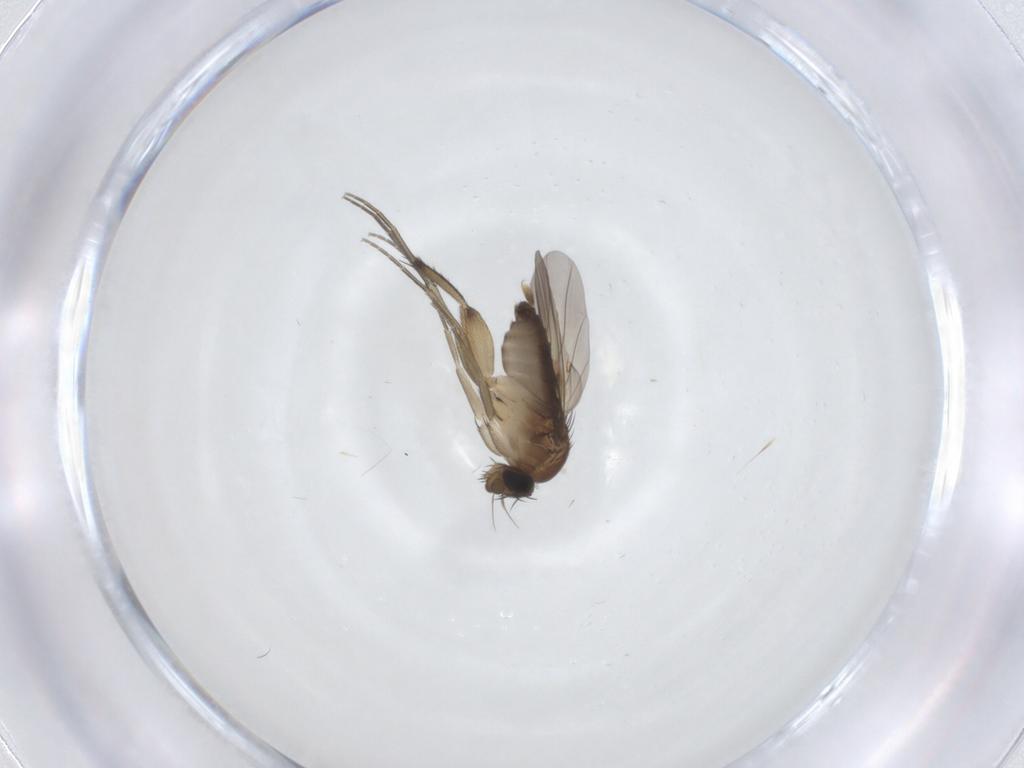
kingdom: Animalia
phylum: Arthropoda
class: Insecta
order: Diptera
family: Phoridae
